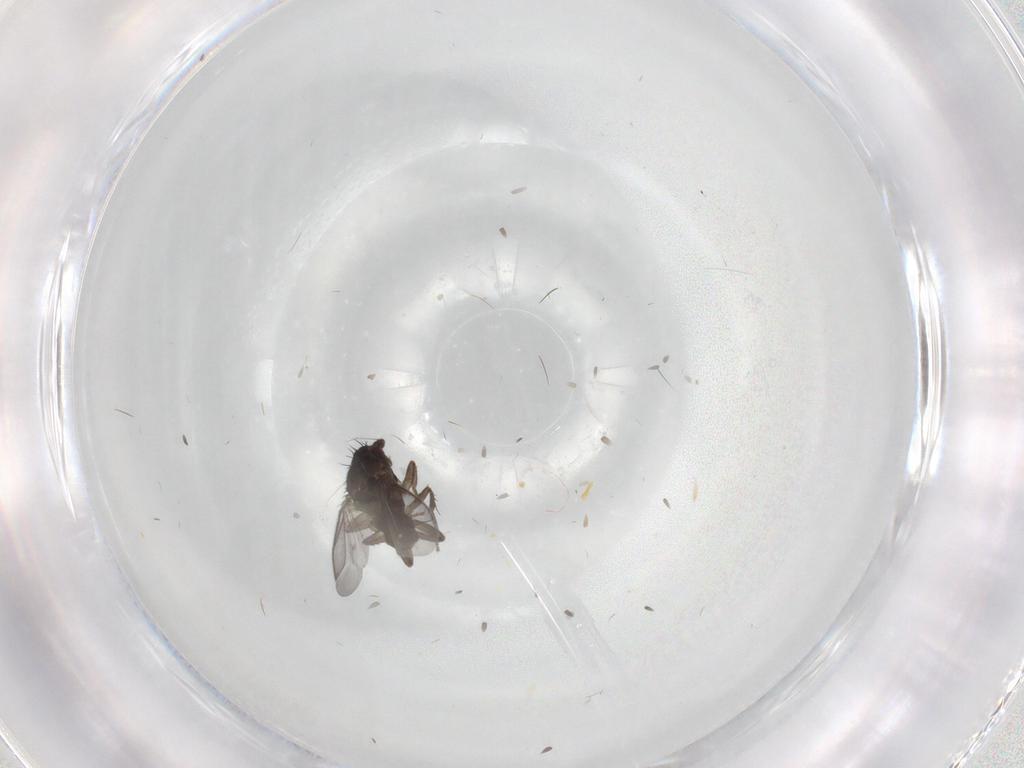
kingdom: Animalia
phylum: Arthropoda
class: Insecta
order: Diptera
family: Sphaeroceridae
